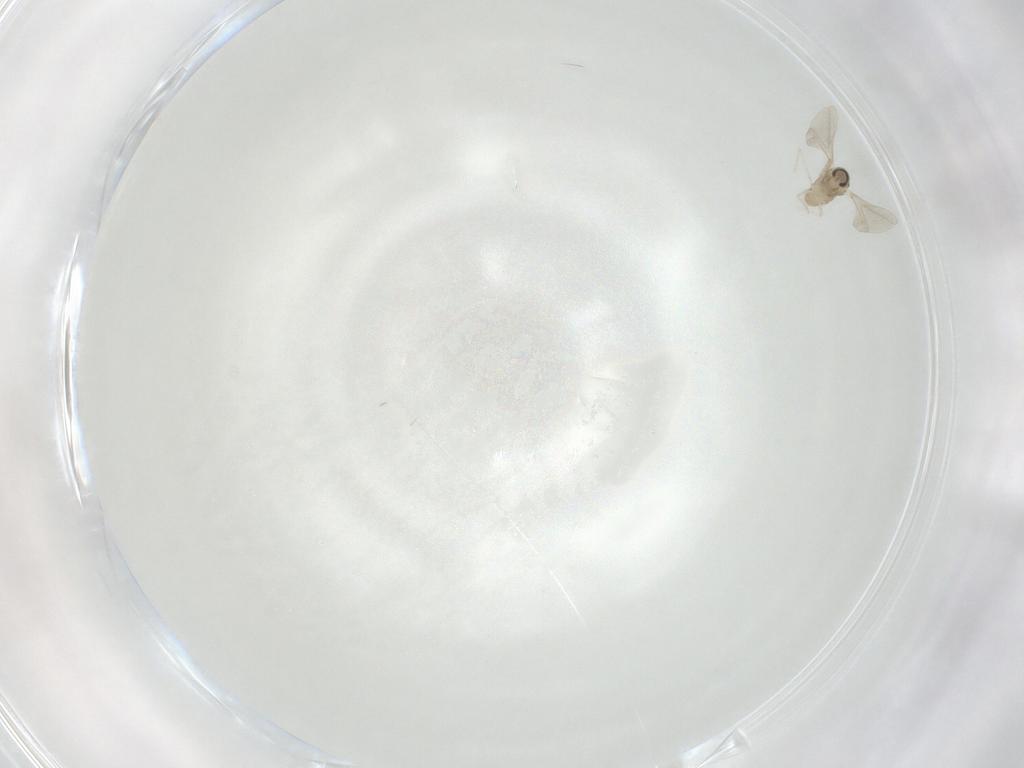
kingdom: Animalia
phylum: Arthropoda
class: Insecta
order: Diptera
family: Cecidomyiidae
